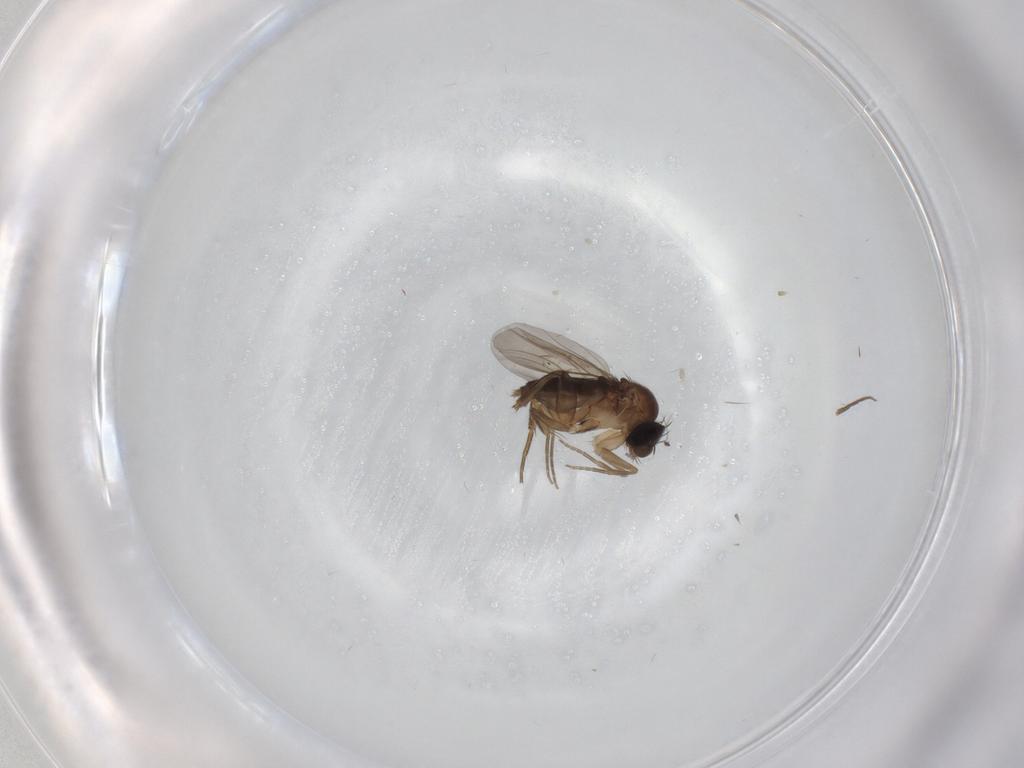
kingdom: Animalia
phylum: Arthropoda
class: Insecta
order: Diptera
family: Phoridae
